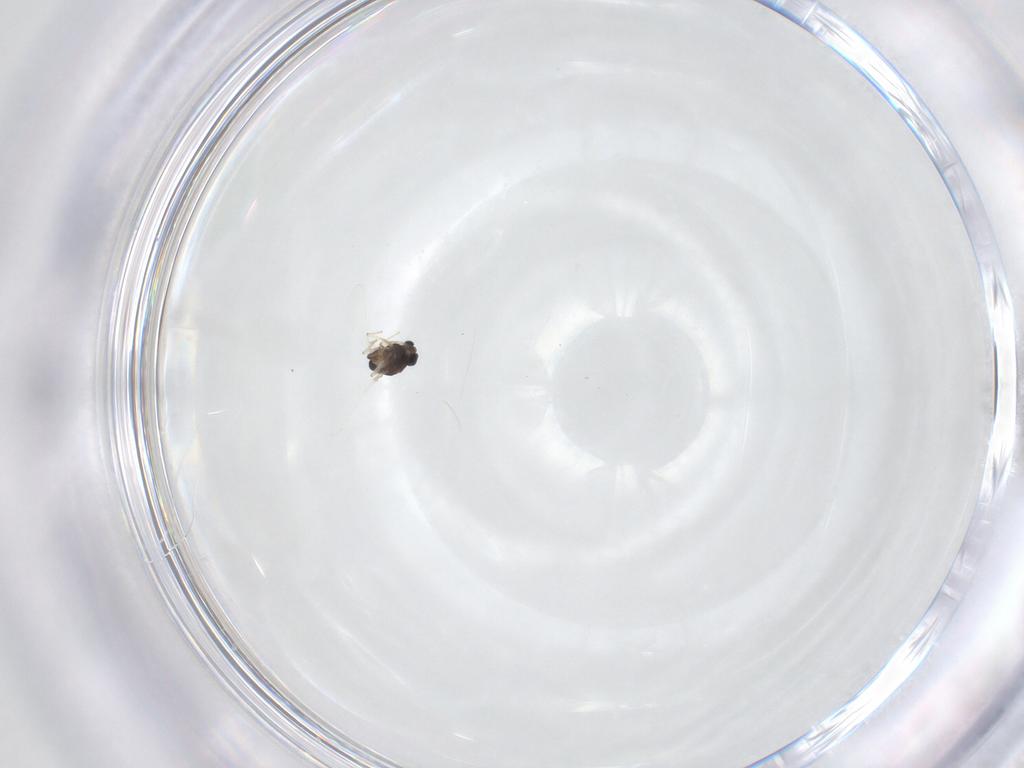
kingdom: Animalia
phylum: Arthropoda
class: Insecta
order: Diptera
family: Chironomidae
